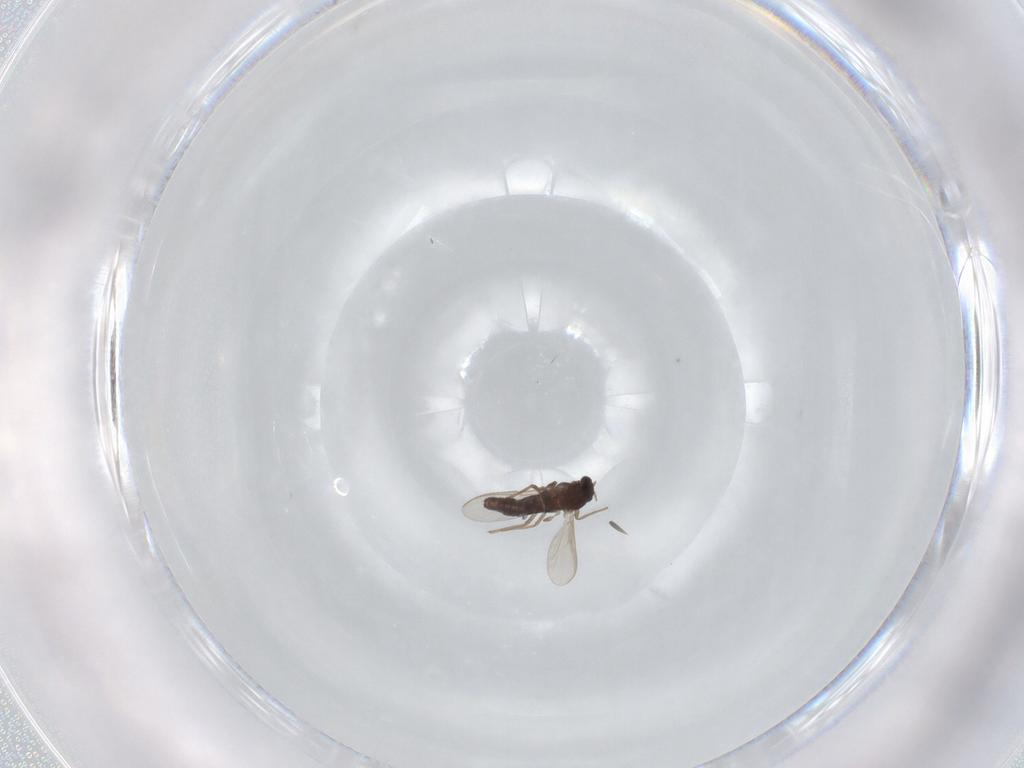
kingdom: Animalia
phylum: Arthropoda
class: Insecta
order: Diptera
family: Chironomidae
